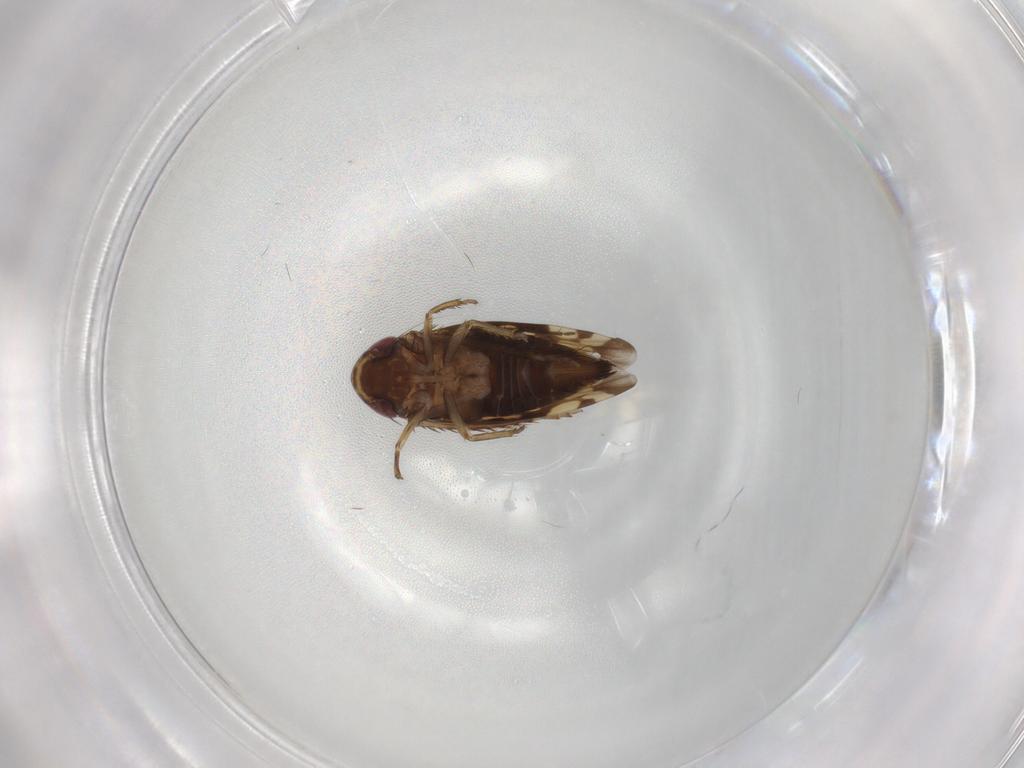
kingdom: Animalia
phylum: Arthropoda
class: Insecta
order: Hemiptera
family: Cicadellidae
